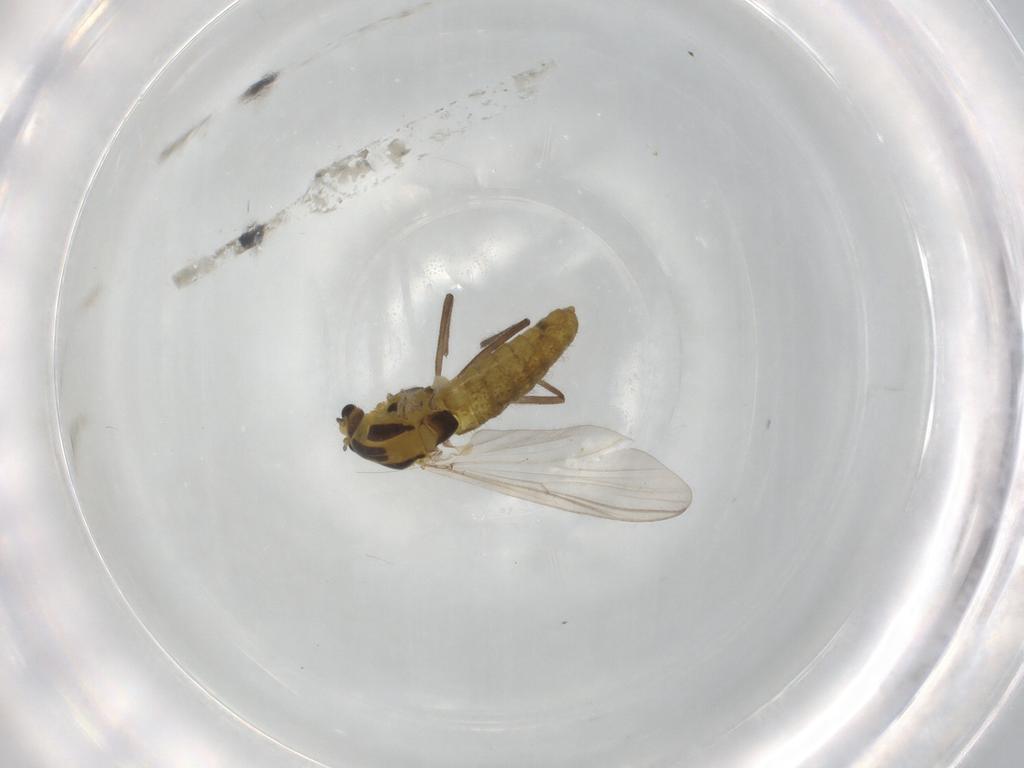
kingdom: Animalia
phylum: Arthropoda
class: Insecta
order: Diptera
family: Chironomidae
